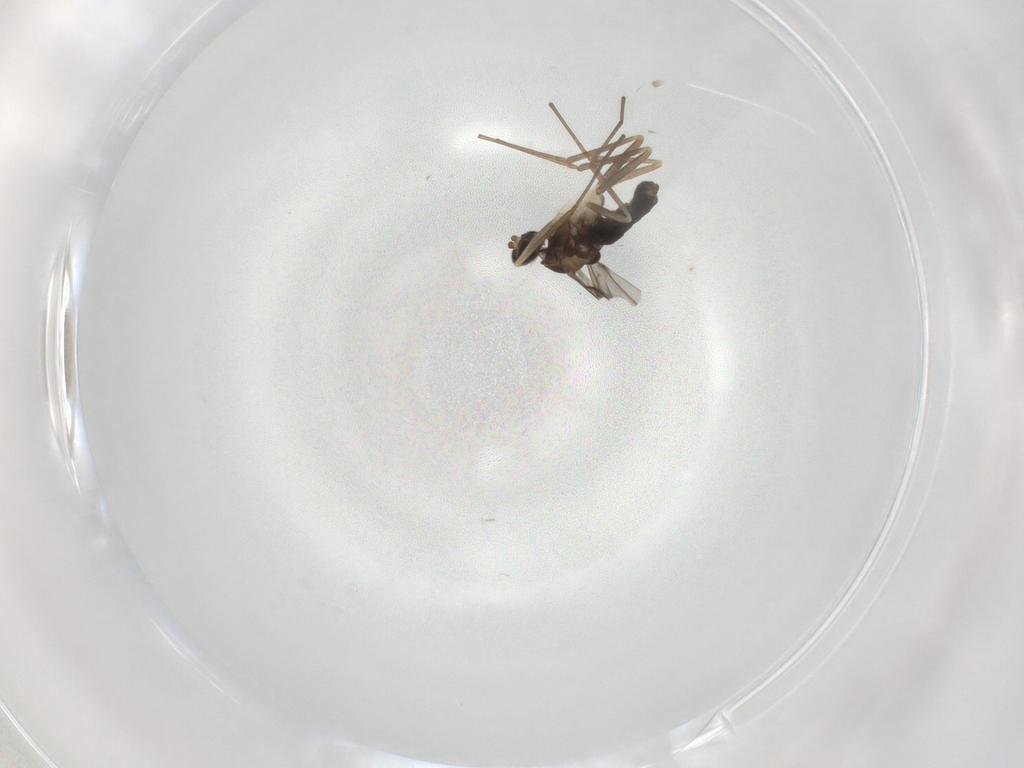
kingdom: Animalia
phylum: Arthropoda
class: Insecta
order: Diptera
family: Cecidomyiidae
